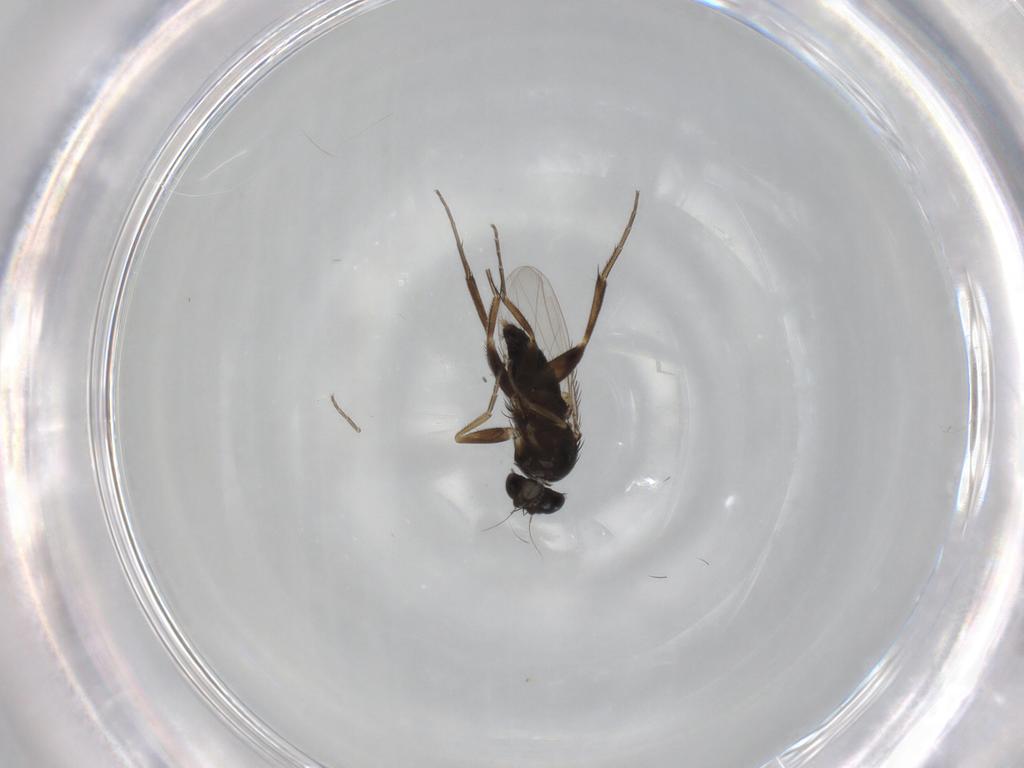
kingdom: Animalia
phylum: Arthropoda
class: Insecta
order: Diptera
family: Phoridae
